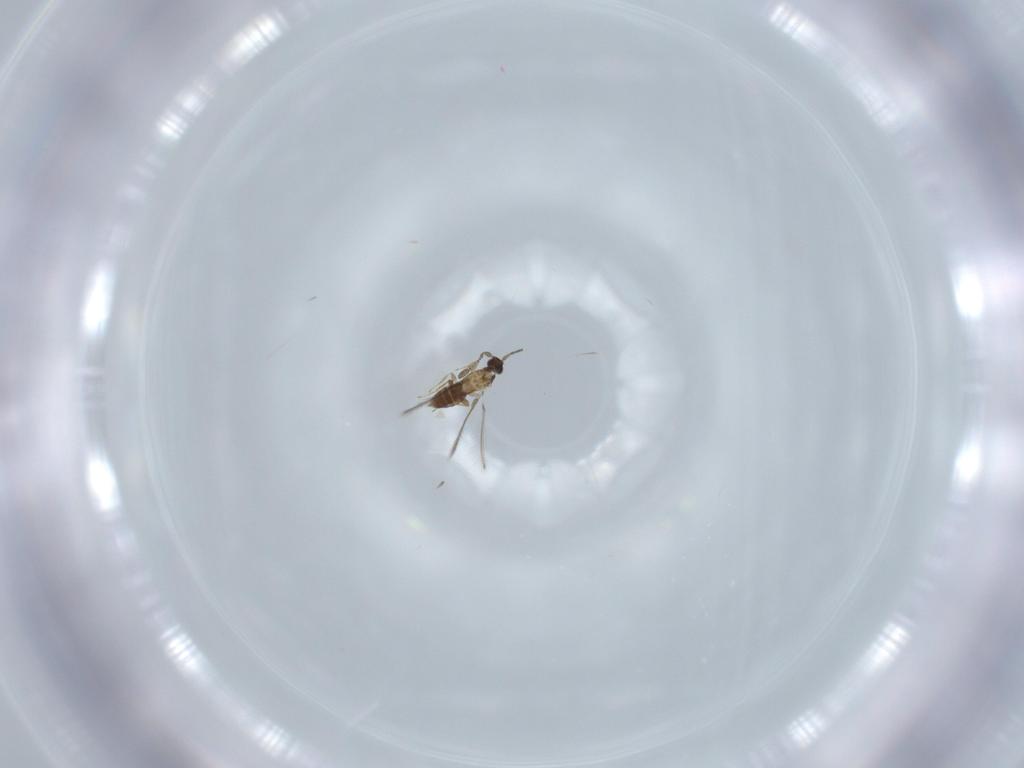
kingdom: Animalia
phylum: Arthropoda
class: Insecta
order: Hymenoptera
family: Mymaridae
